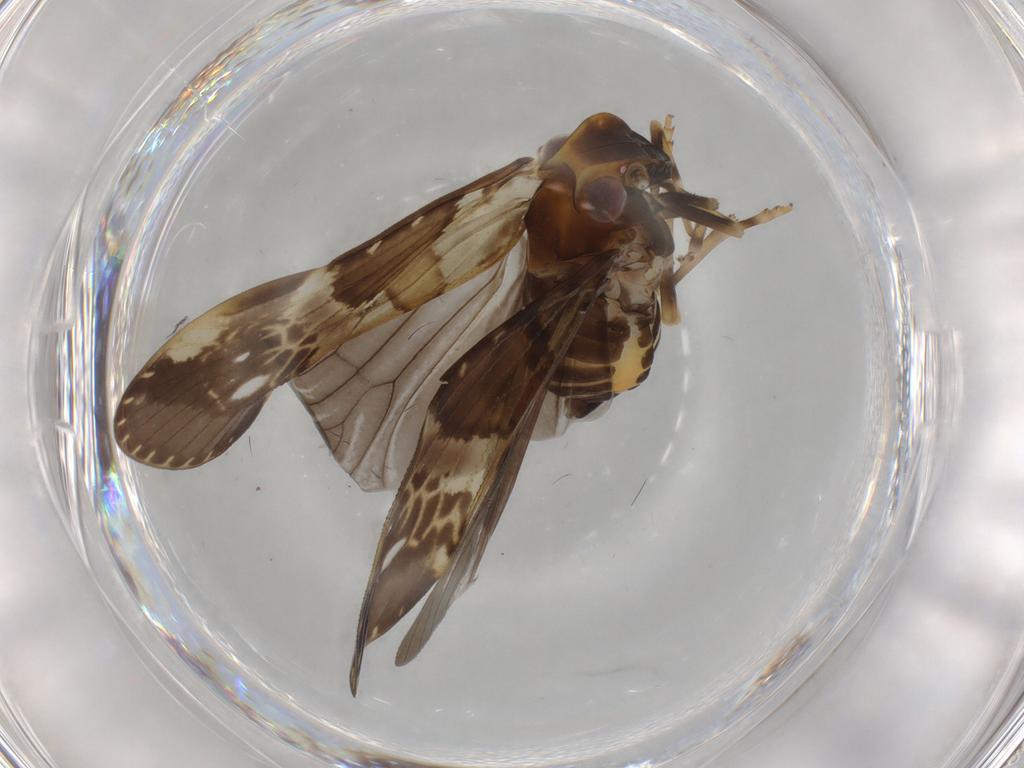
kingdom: Animalia
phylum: Arthropoda
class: Insecta
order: Hemiptera
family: Cixiidae
